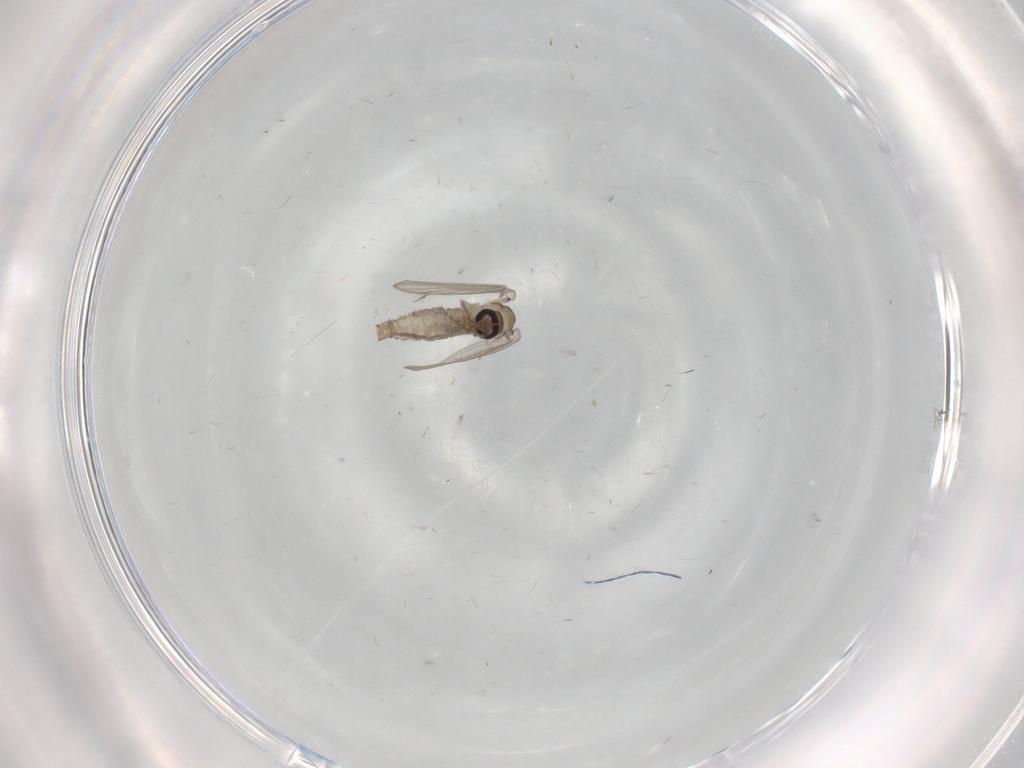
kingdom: Animalia
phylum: Arthropoda
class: Insecta
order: Diptera
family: Psychodidae
